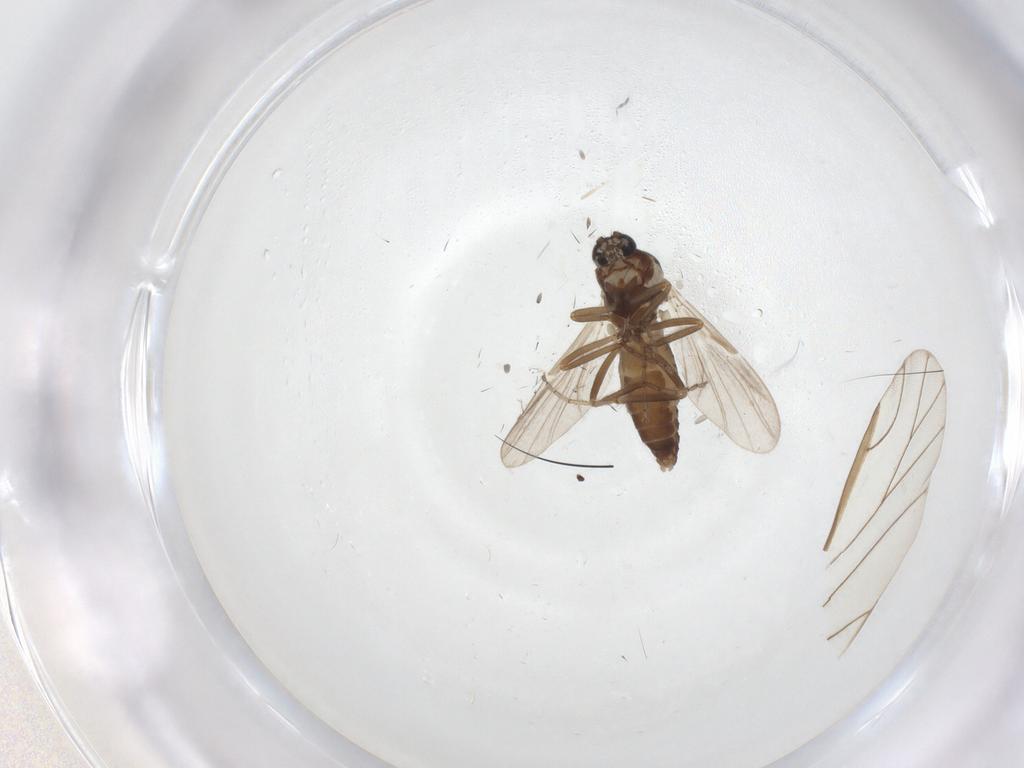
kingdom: Animalia
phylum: Arthropoda
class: Insecta
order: Diptera
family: Ceratopogonidae
